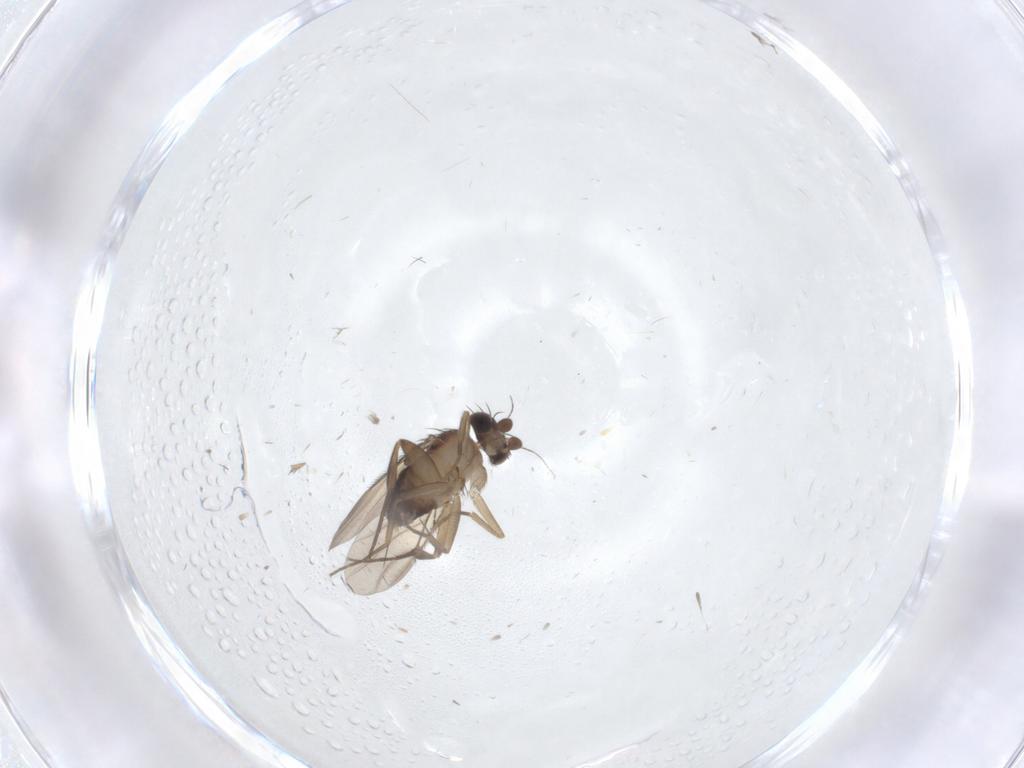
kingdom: Animalia
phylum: Arthropoda
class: Insecta
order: Diptera
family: Phoridae
